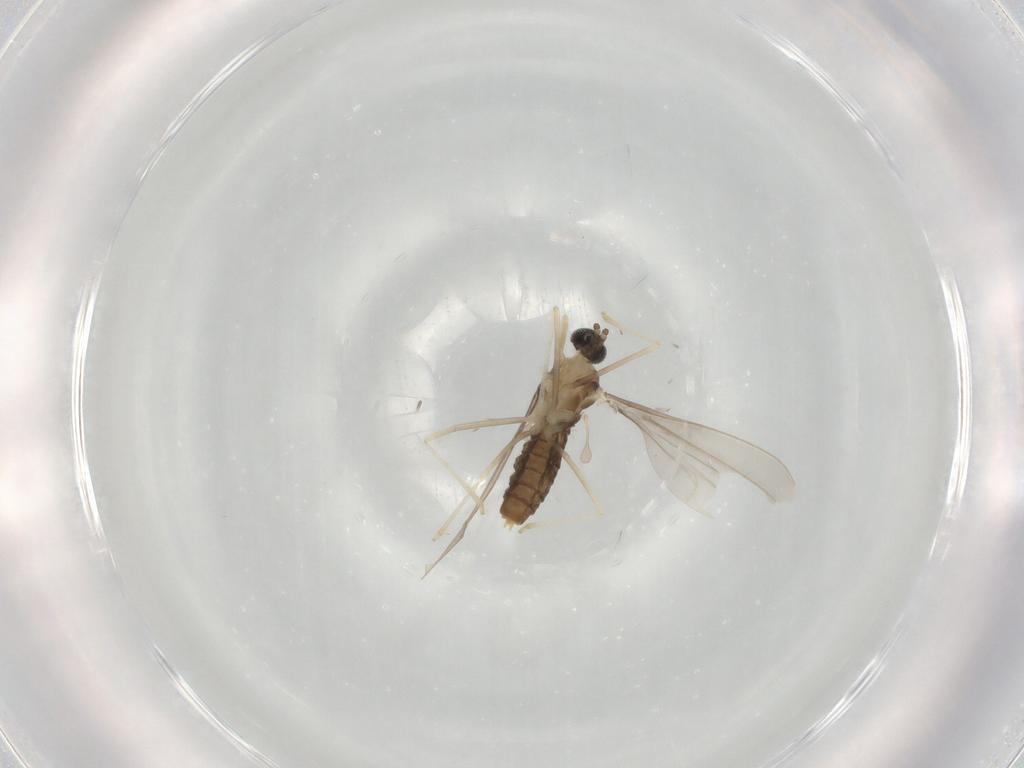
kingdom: Animalia
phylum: Arthropoda
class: Insecta
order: Diptera
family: Cecidomyiidae
